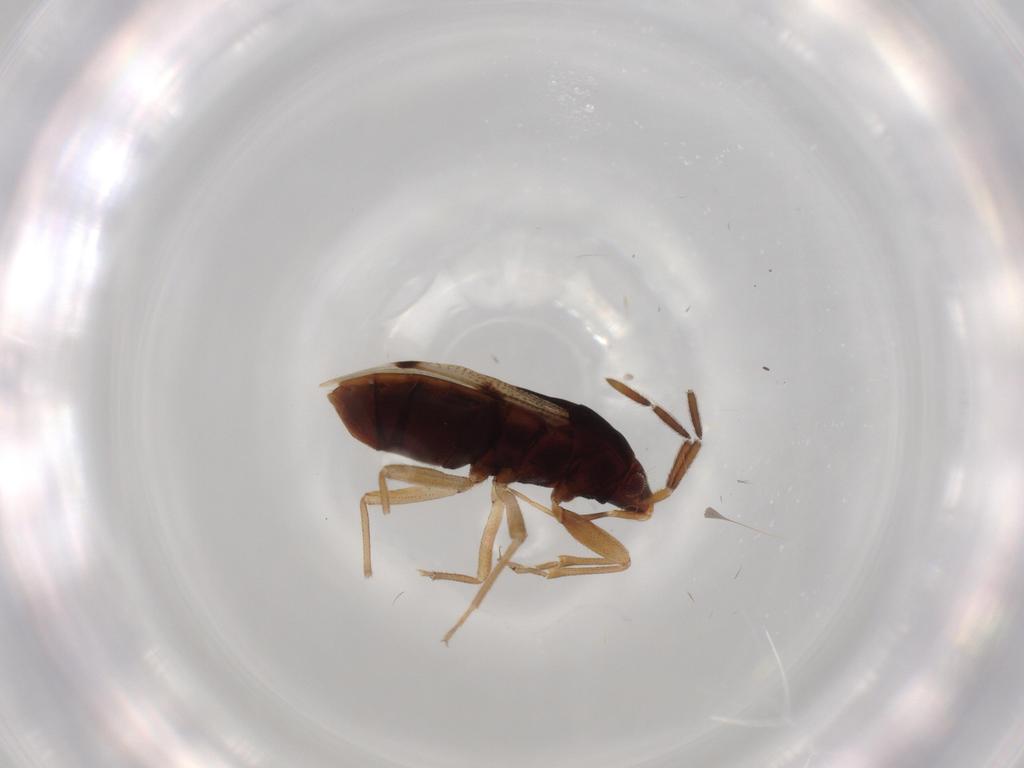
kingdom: Animalia
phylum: Arthropoda
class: Insecta
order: Hemiptera
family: Rhyparochromidae
